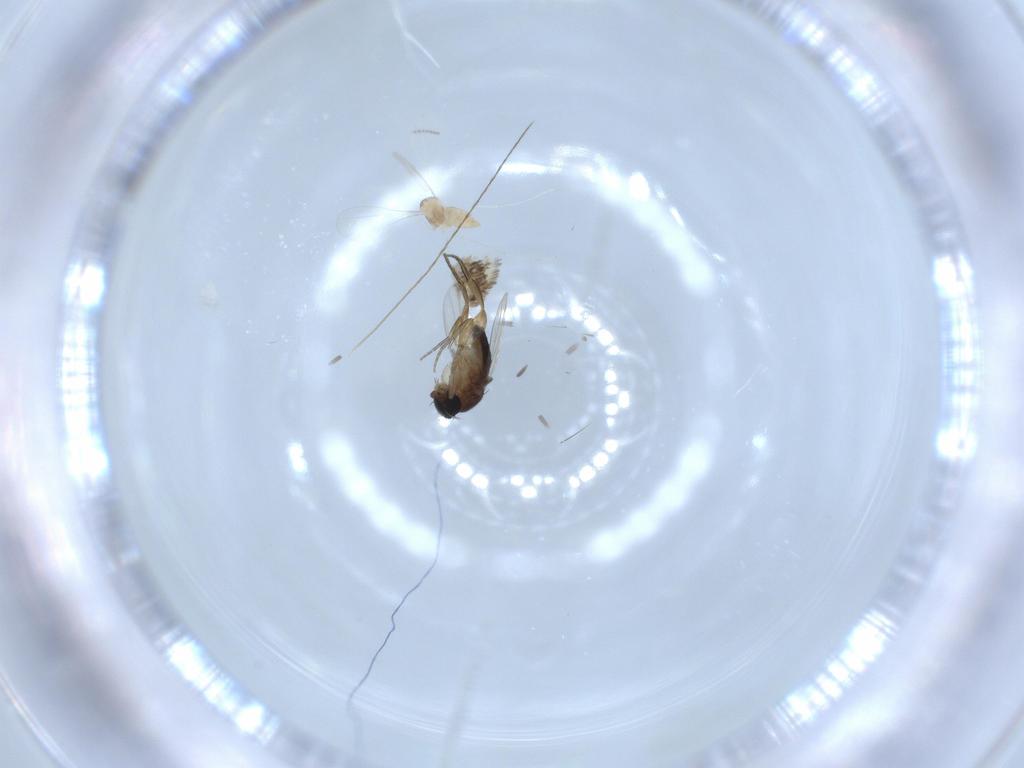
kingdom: Animalia
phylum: Arthropoda
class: Insecta
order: Diptera
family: Cecidomyiidae
